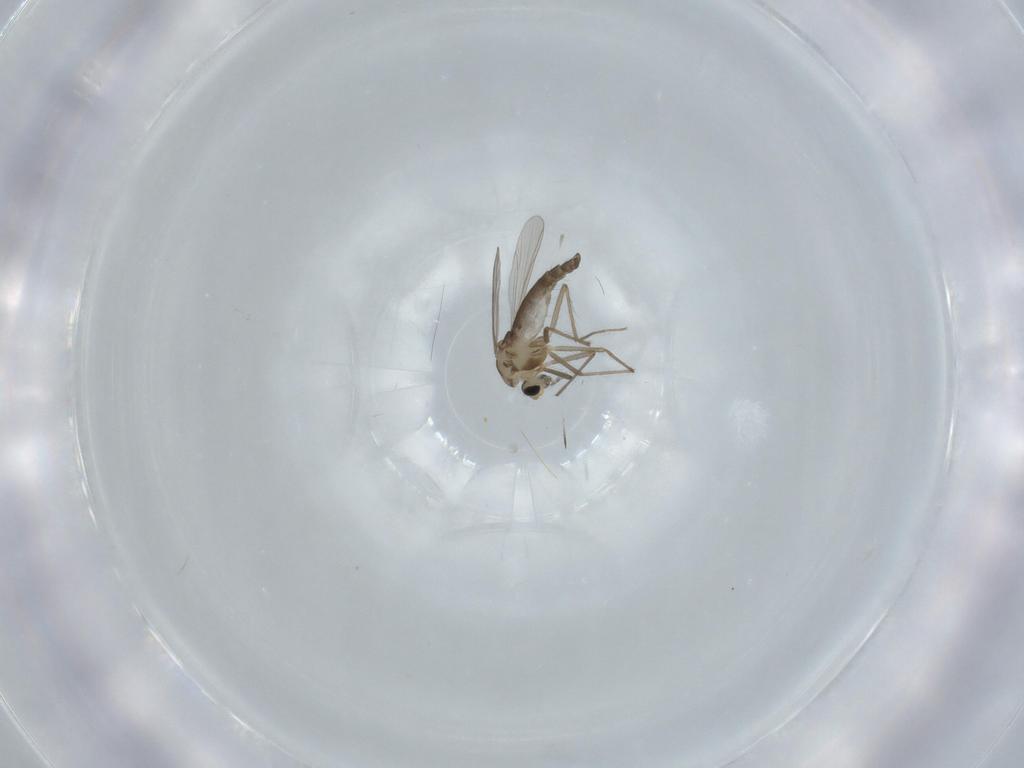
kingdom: Animalia
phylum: Arthropoda
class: Insecta
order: Diptera
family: Chironomidae
